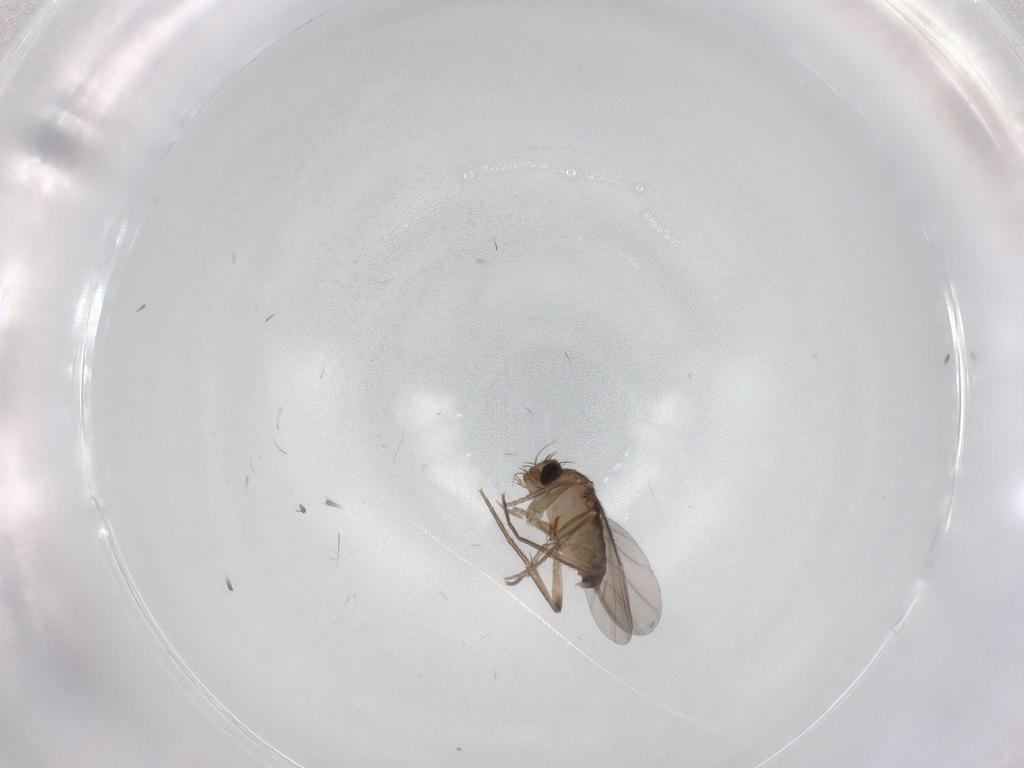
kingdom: Animalia
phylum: Arthropoda
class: Insecta
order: Diptera
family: Phoridae
